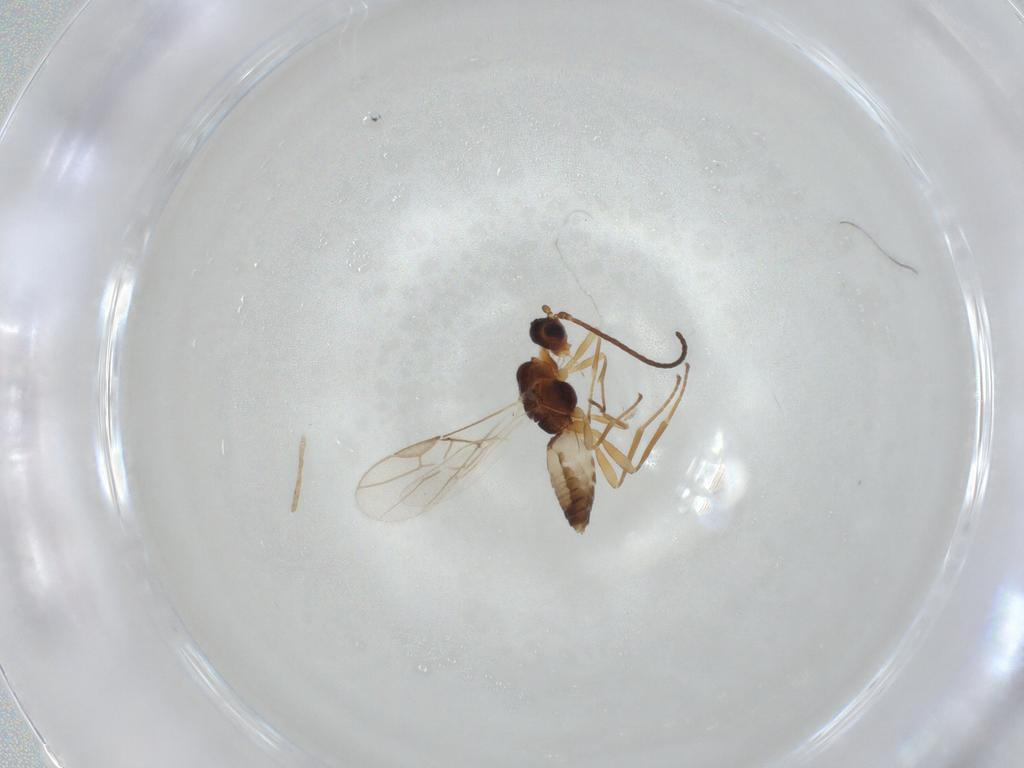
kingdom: Animalia
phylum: Arthropoda
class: Insecta
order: Hymenoptera
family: Braconidae
